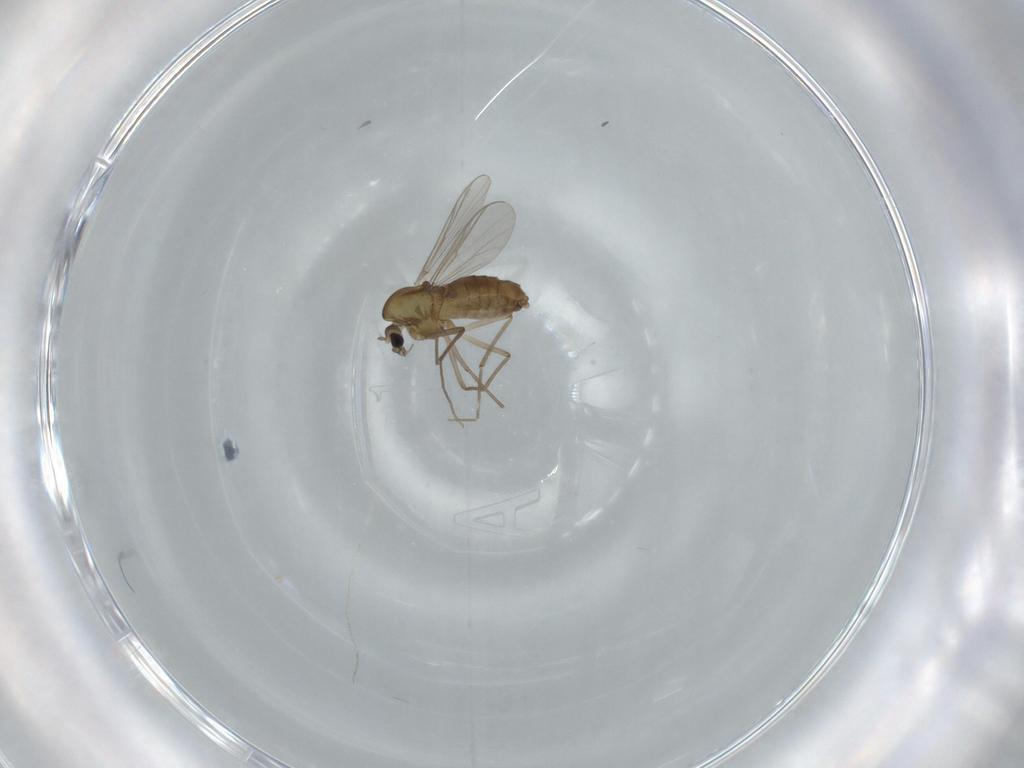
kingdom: Animalia
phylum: Arthropoda
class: Insecta
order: Diptera
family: Chironomidae
